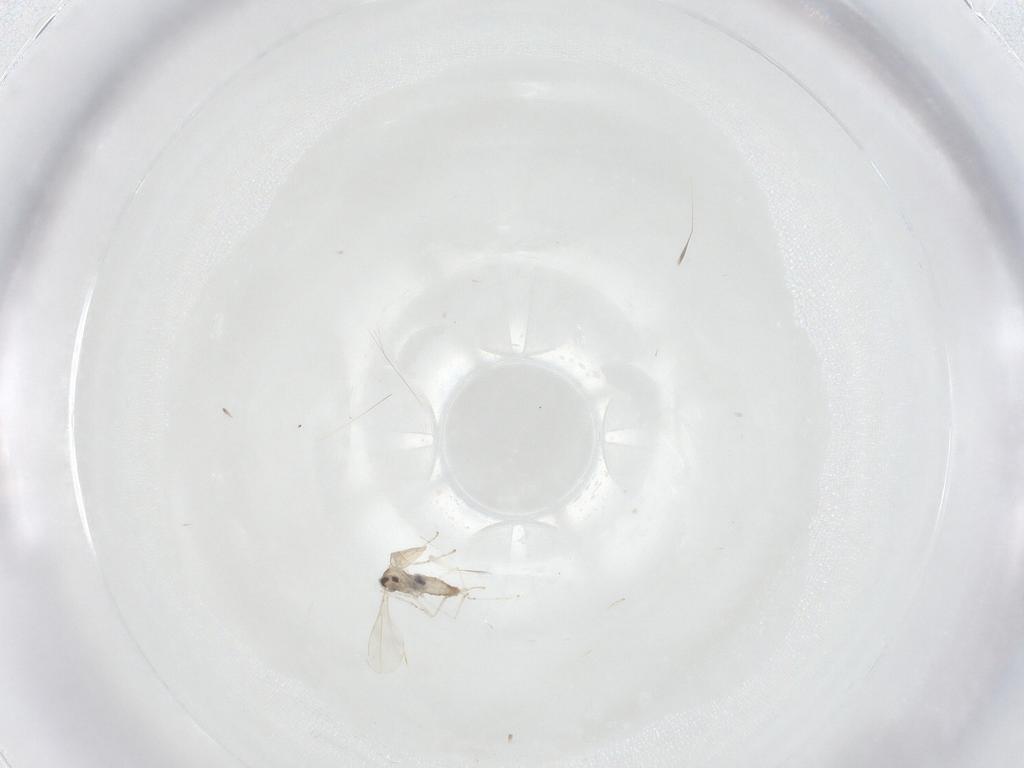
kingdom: Animalia
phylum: Arthropoda
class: Insecta
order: Diptera
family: Cecidomyiidae
